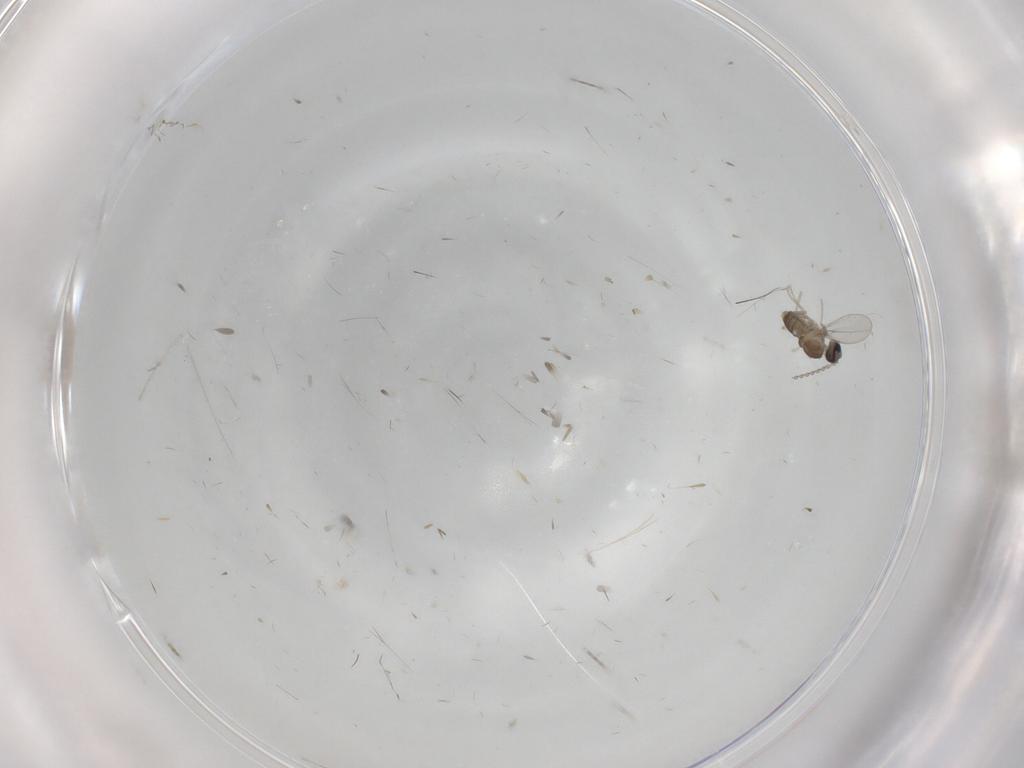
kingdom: Animalia
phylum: Arthropoda
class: Insecta
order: Diptera
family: Cecidomyiidae
